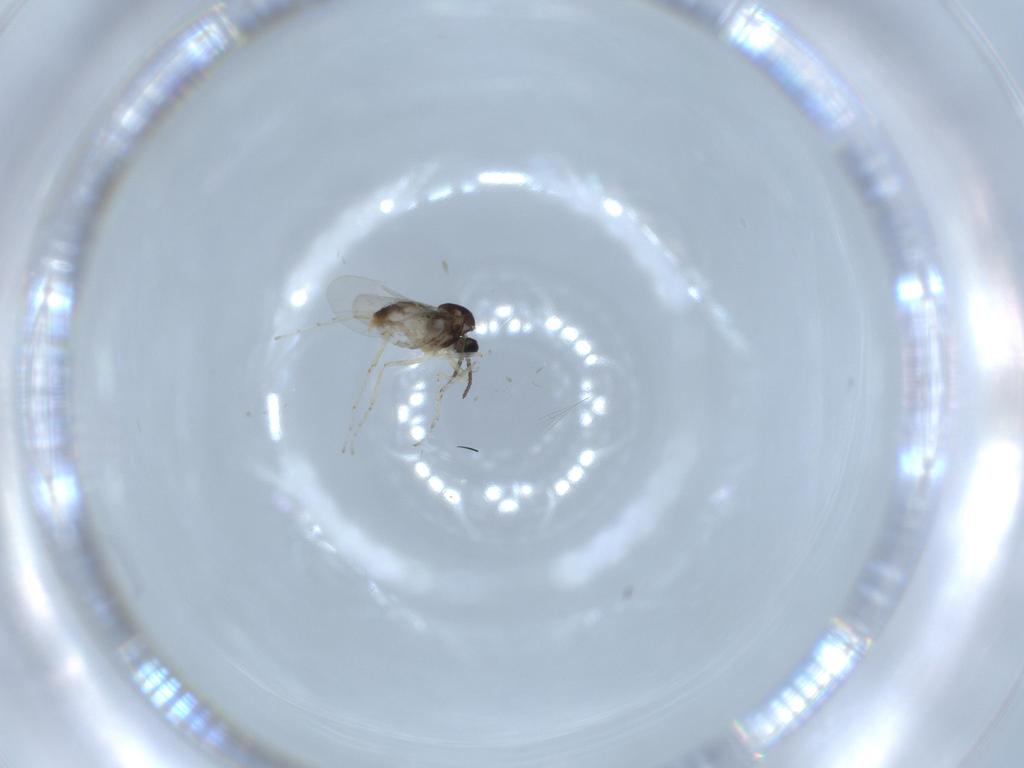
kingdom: Animalia
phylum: Arthropoda
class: Insecta
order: Diptera
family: Cecidomyiidae
